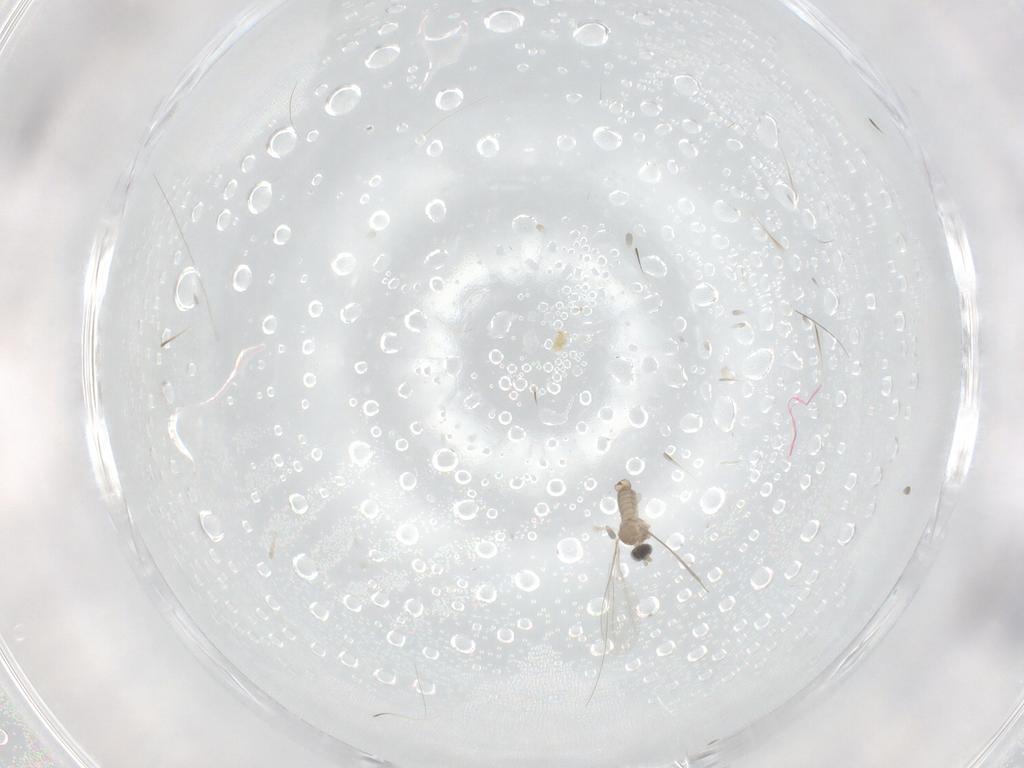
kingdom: Animalia
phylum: Arthropoda
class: Insecta
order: Diptera
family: Cecidomyiidae
